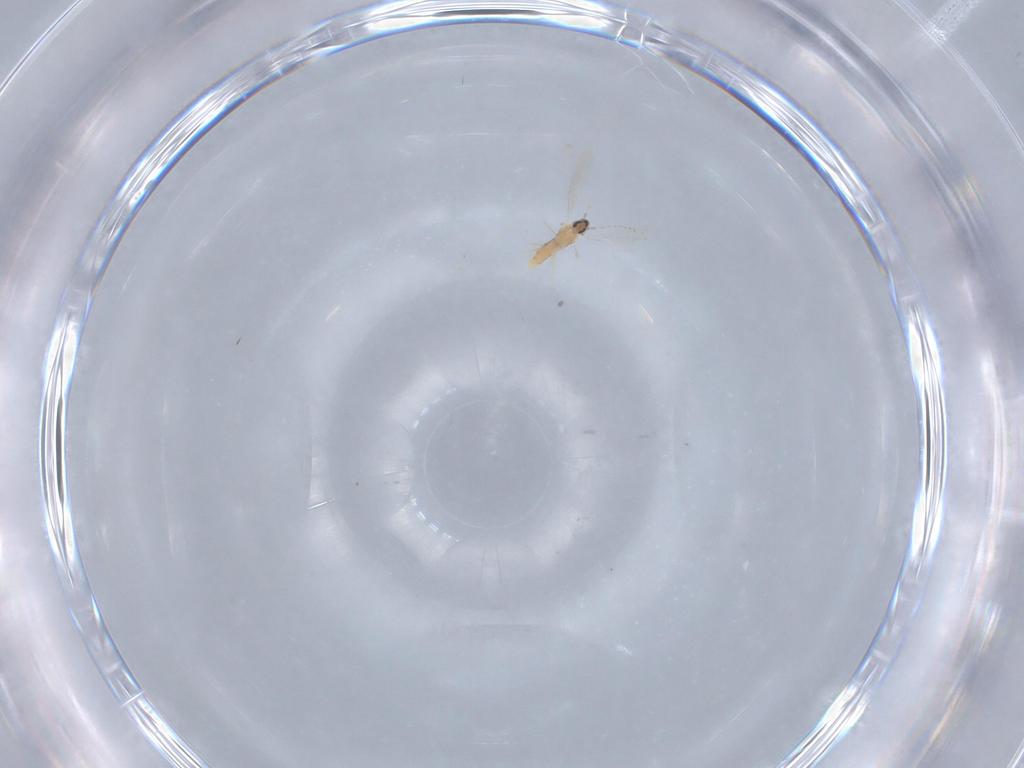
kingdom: Animalia
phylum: Arthropoda
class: Insecta
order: Diptera
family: Cecidomyiidae
